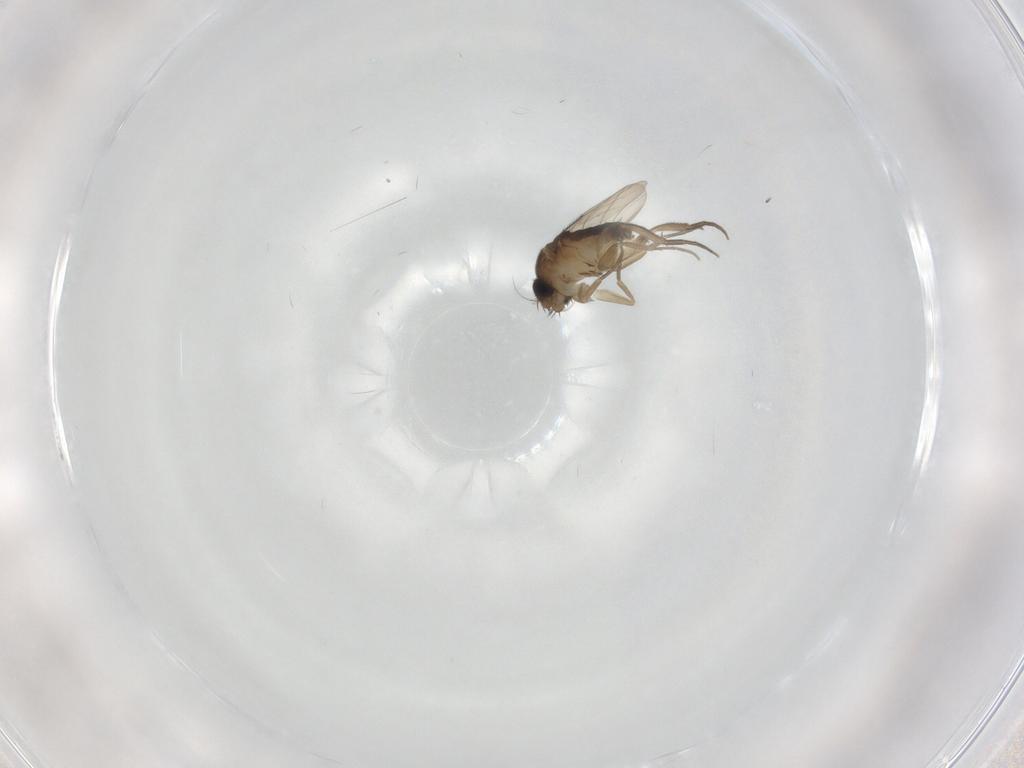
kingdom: Animalia
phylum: Arthropoda
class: Insecta
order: Diptera
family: Phoridae
